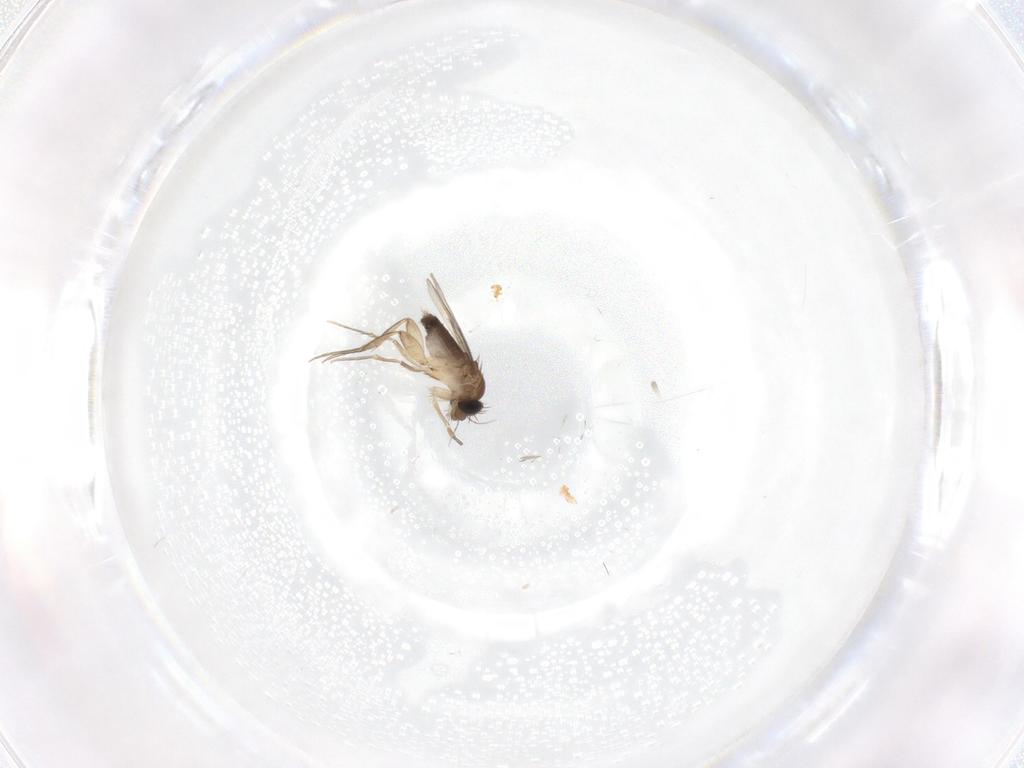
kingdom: Animalia
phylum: Arthropoda
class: Insecta
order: Diptera
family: Phoridae
